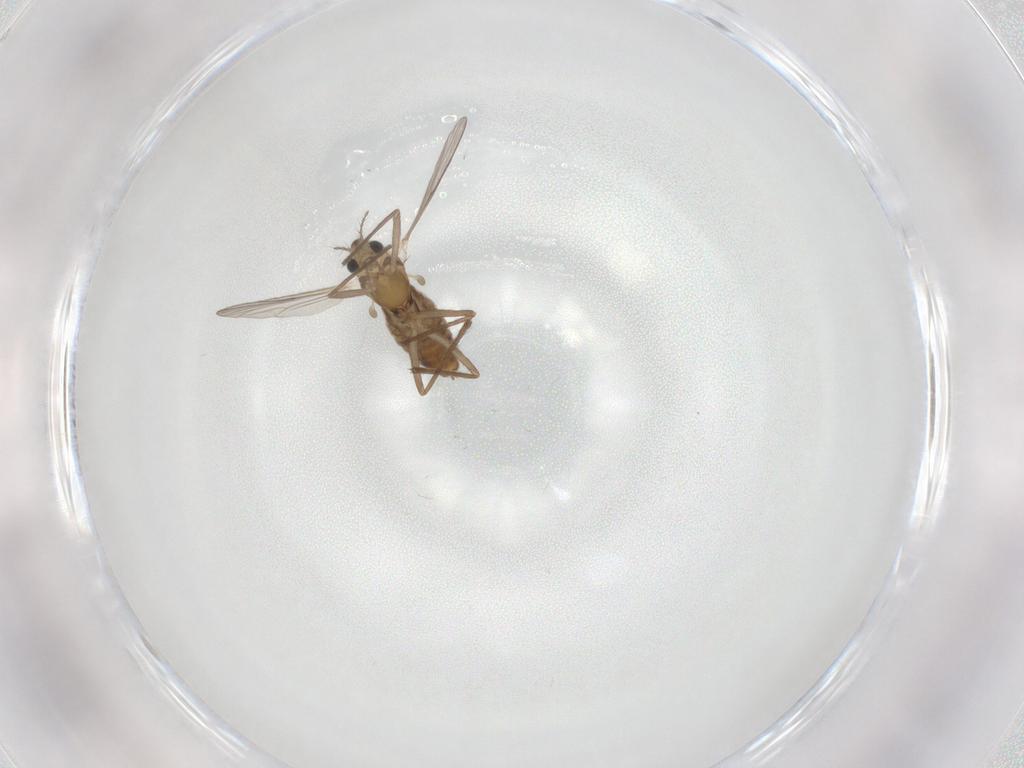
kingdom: Animalia
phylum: Arthropoda
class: Insecta
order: Diptera
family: Chironomidae
